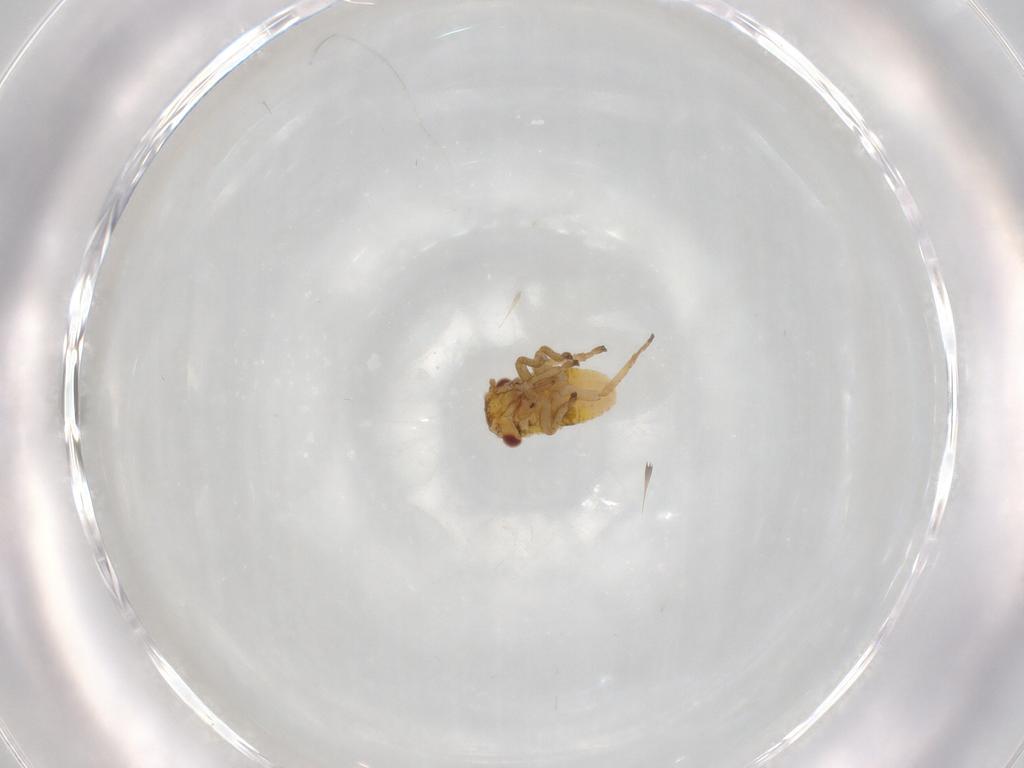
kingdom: Animalia
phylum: Arthropoda
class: Insecta
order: Hemiptera
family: Cicadellidae
